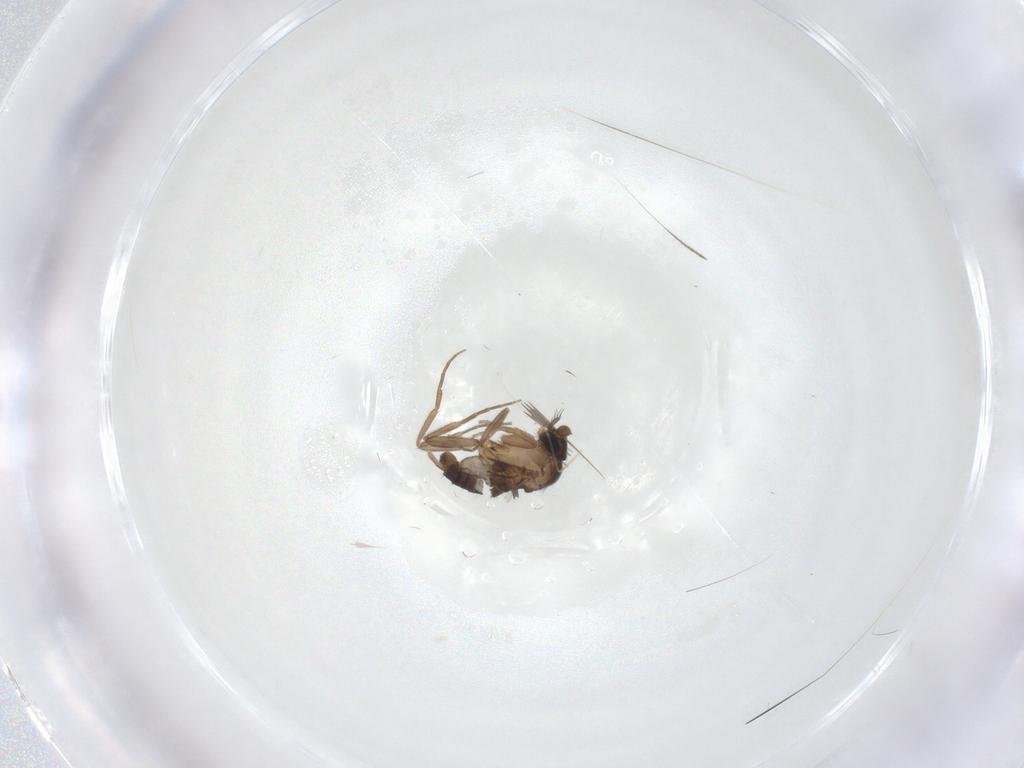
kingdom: Animalia
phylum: Arthropoda
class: Insecta
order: Diptera
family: Phoridae
